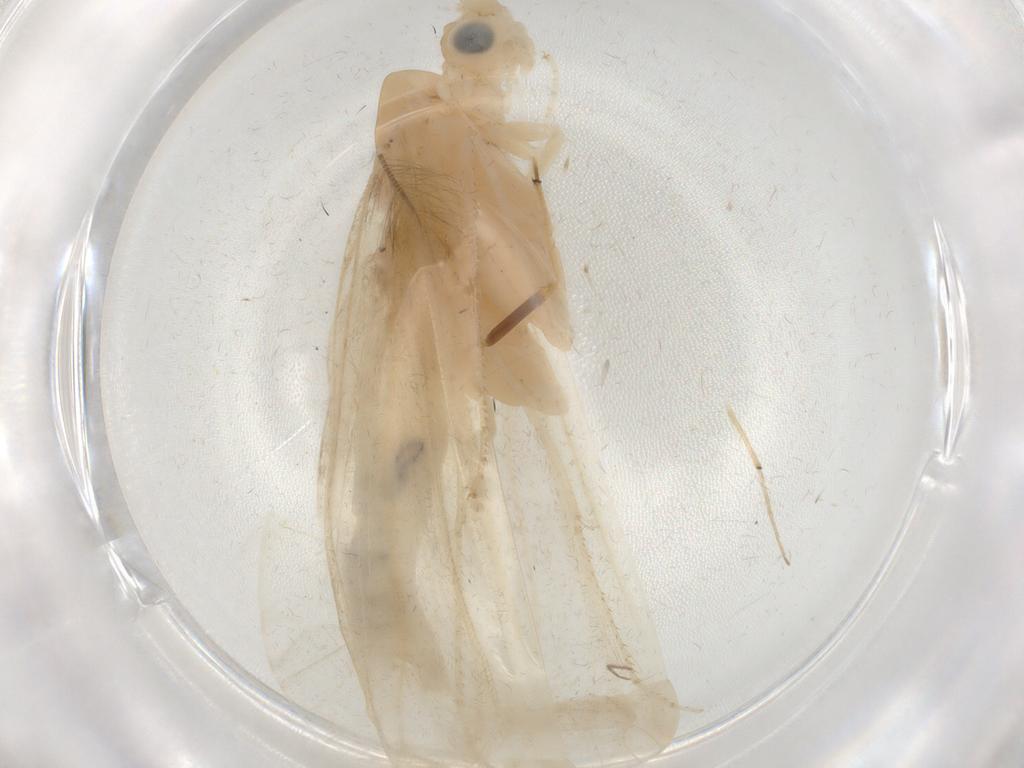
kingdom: Animalia
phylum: Arthropoda
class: Insecta
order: Trichoptera
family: Leptoceridae
